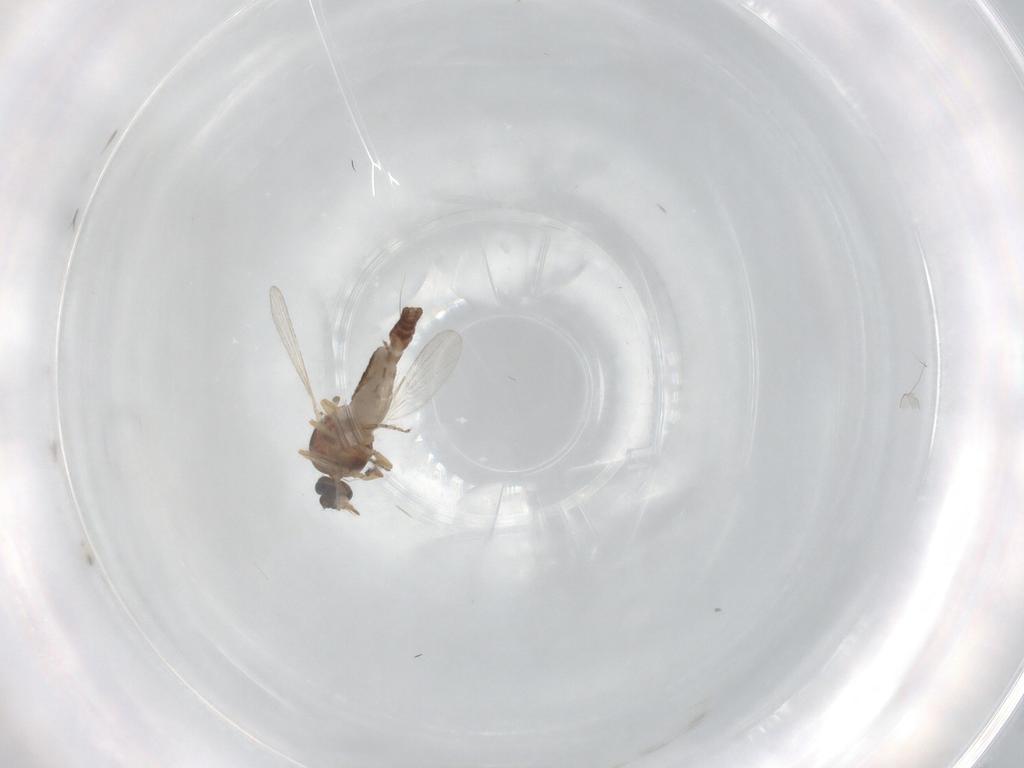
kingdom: Animalia
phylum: Arthropoda
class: Insecta
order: Diptera
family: Ceratopogonidae
